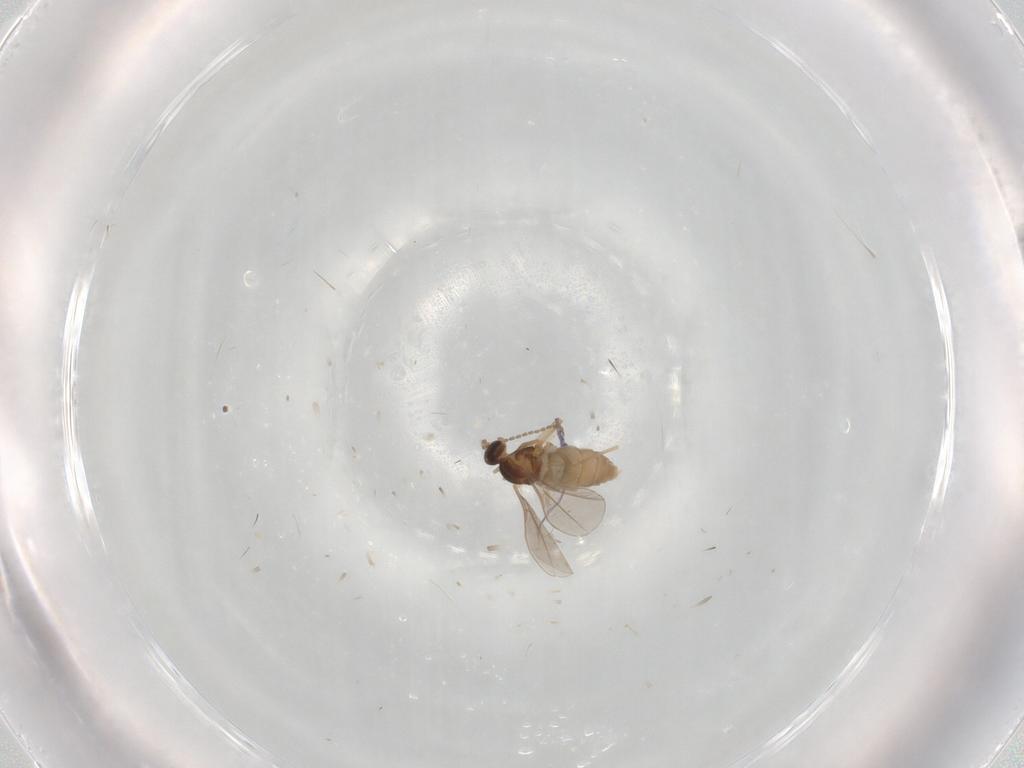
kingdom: Animalia
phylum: Arthropoda
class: Insecta
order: Diptera
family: Cecidomyiidae
